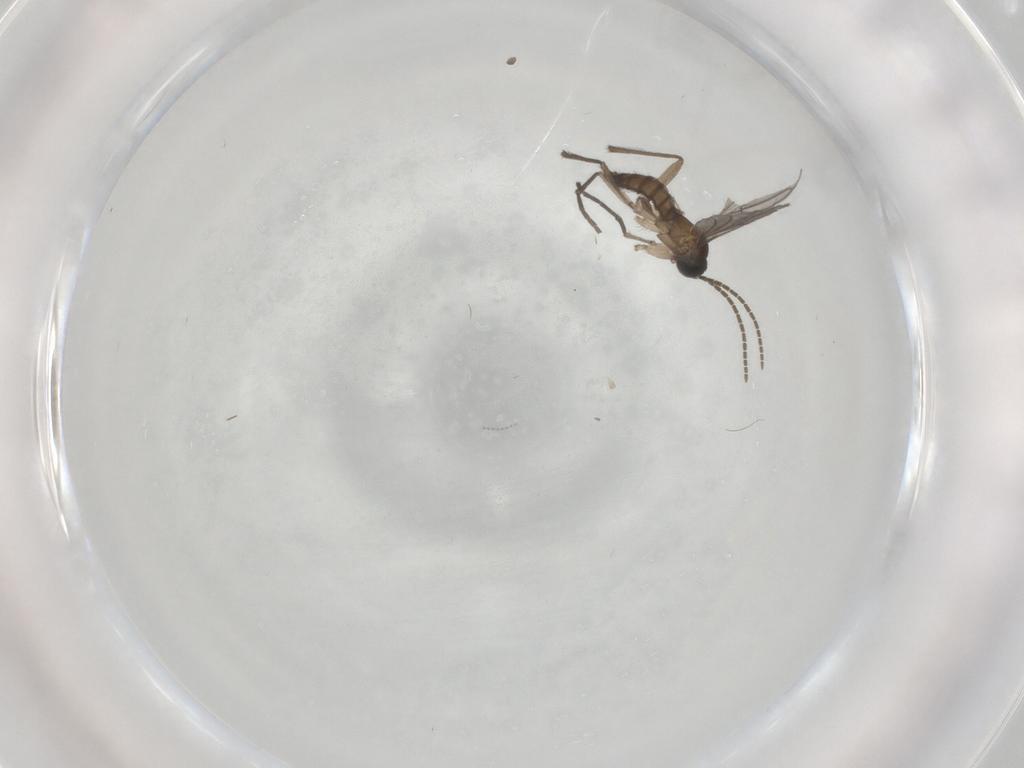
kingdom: Animalia
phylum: Arthropoda
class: Insecta
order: Diptera
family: Sciaridae
